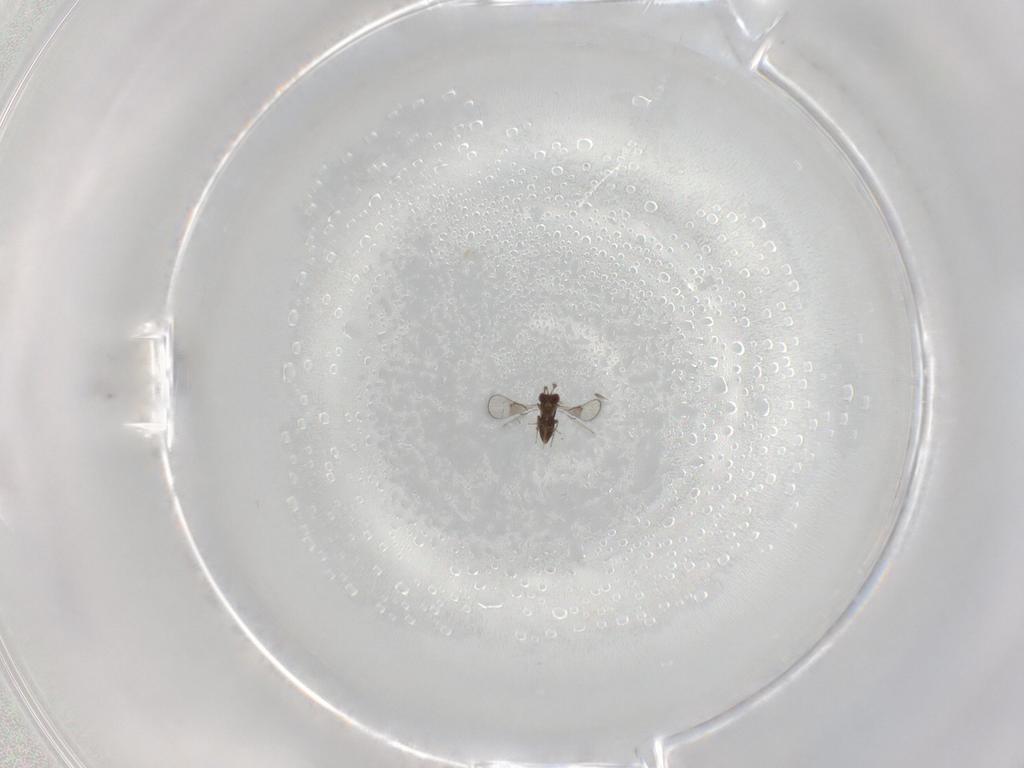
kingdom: Animalia
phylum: Arthropoda
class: Insecta
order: Hymenoptera
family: Trichogrammatidae
